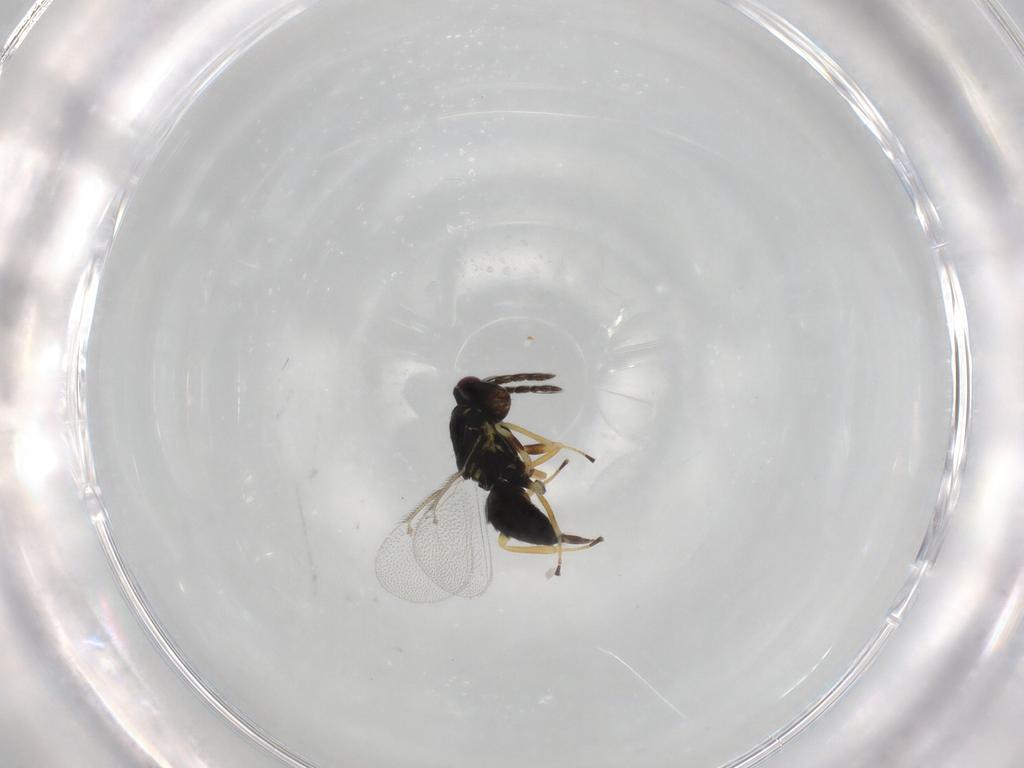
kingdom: Animalia
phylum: Arthropoda
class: Insecta
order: Hymenoptera
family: Eulophidae
